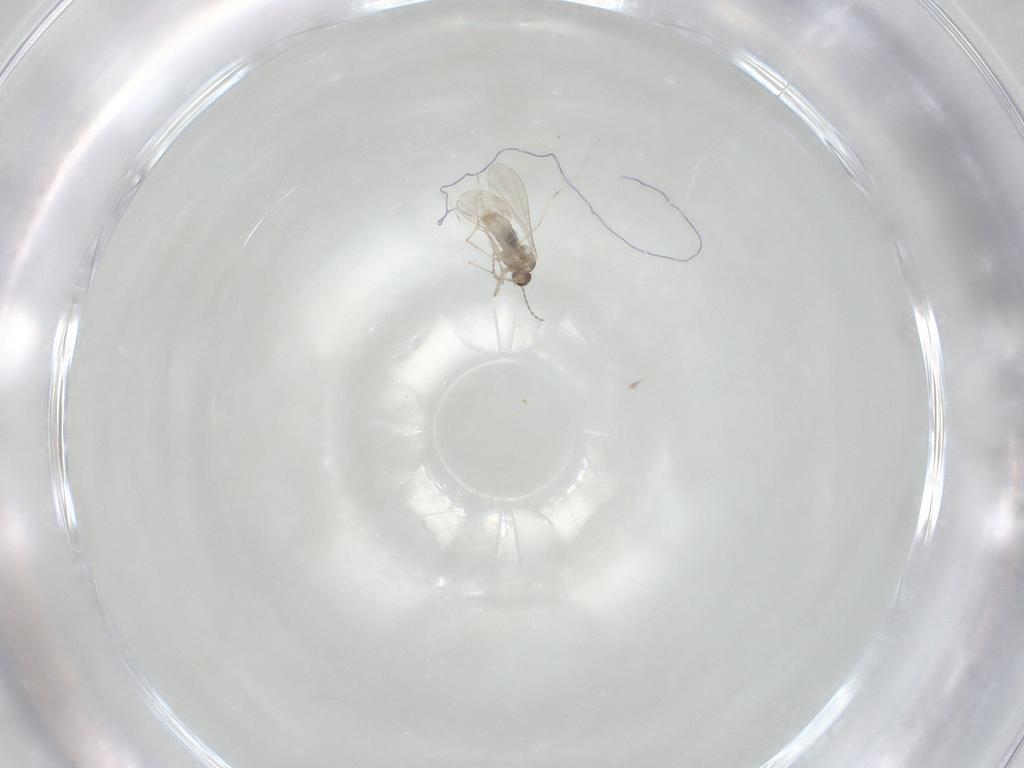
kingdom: Animalia
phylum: Arthropoda
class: Insecta
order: Diptera
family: Cecidomyiidae
